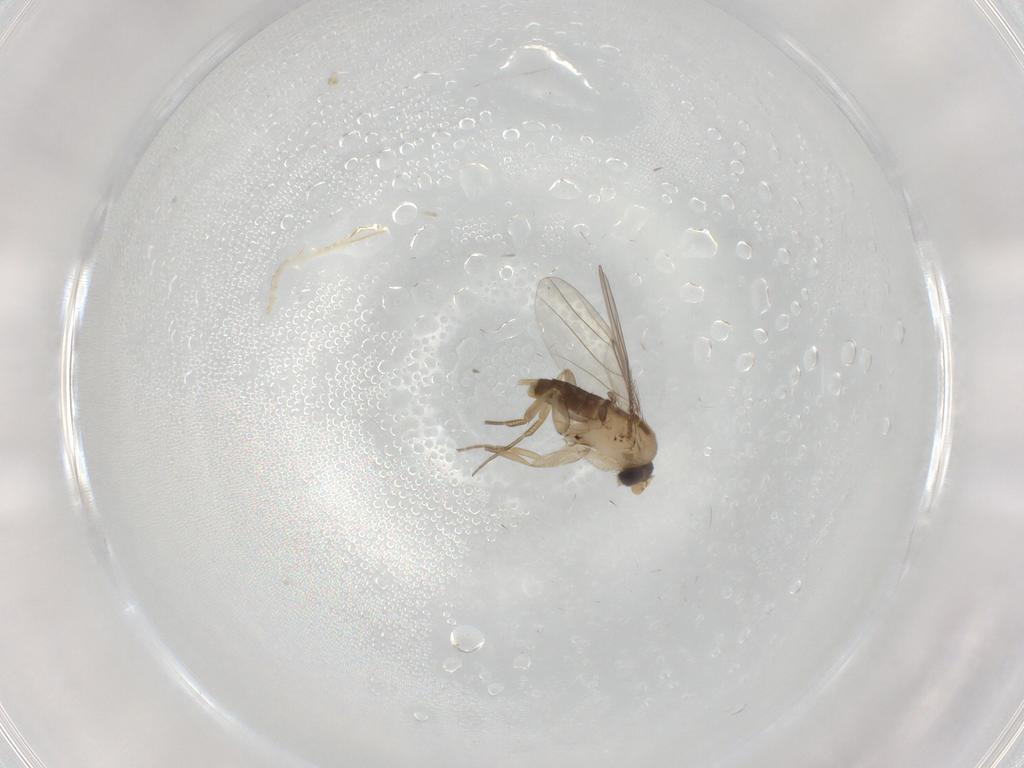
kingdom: Animalia
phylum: Arthropoda
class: Insecta
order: Diptera
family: Phoridae
